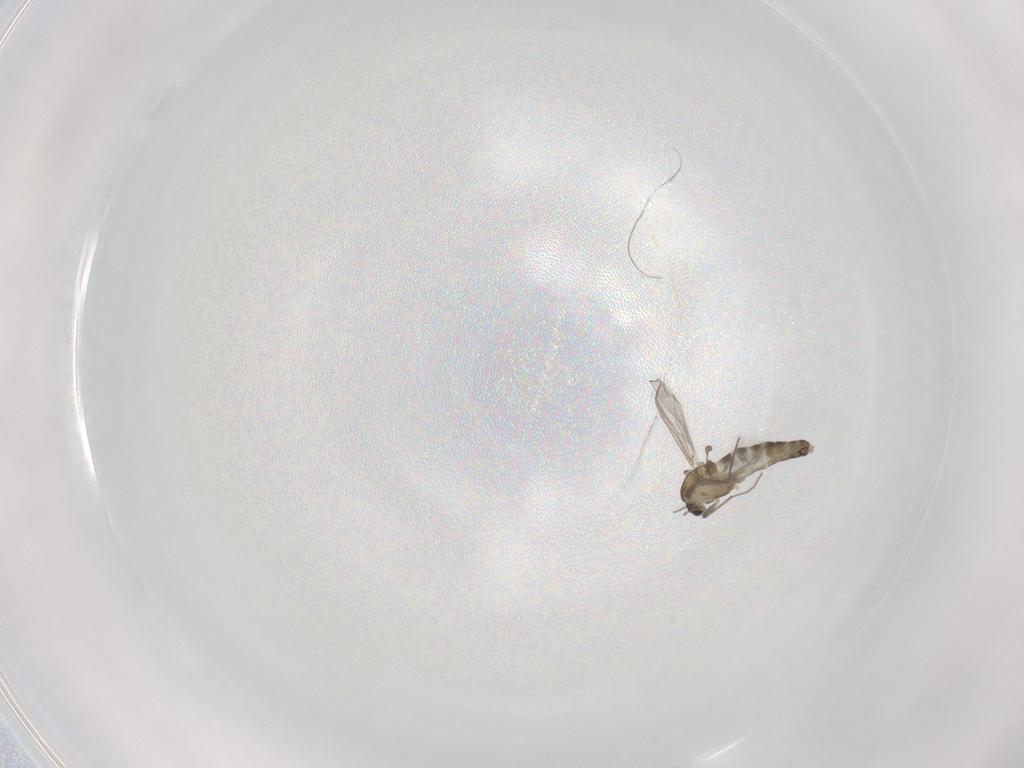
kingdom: Animalia
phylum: Arthropoda
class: Insecta
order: Diptera
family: Chironomidae
